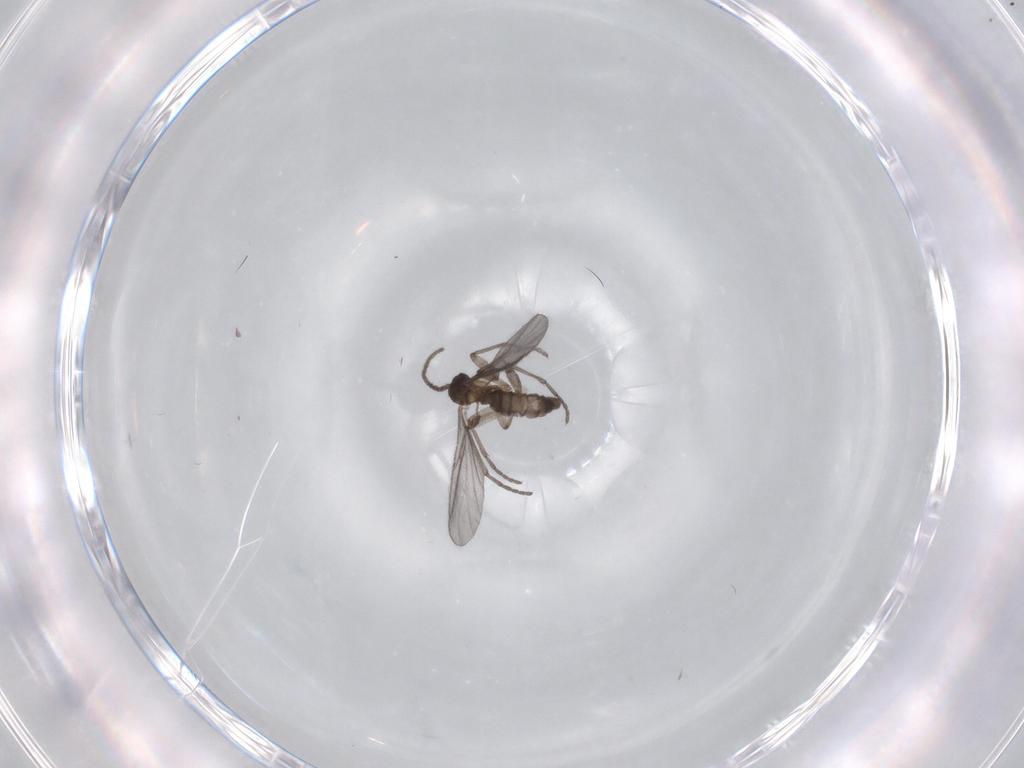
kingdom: Animalia
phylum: Arthropoda
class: Insecta
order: Diptera
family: Sciaridae
